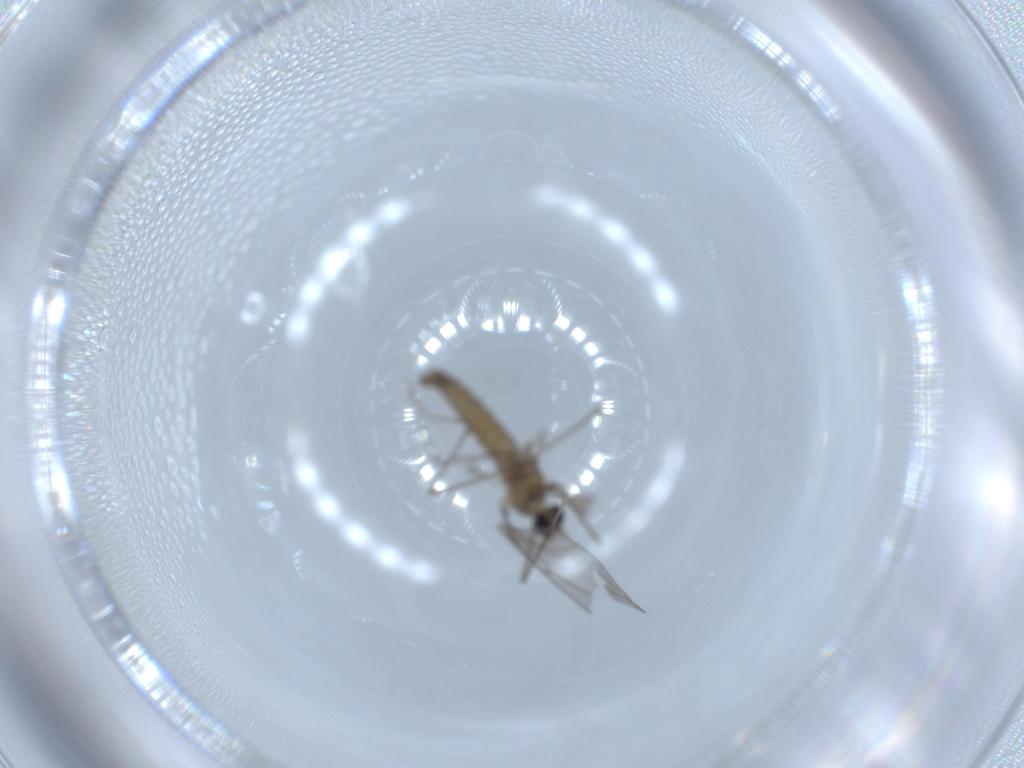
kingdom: Animalia
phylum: Arthropoda
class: Insecta
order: Diptera
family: Cecidomyiidae
